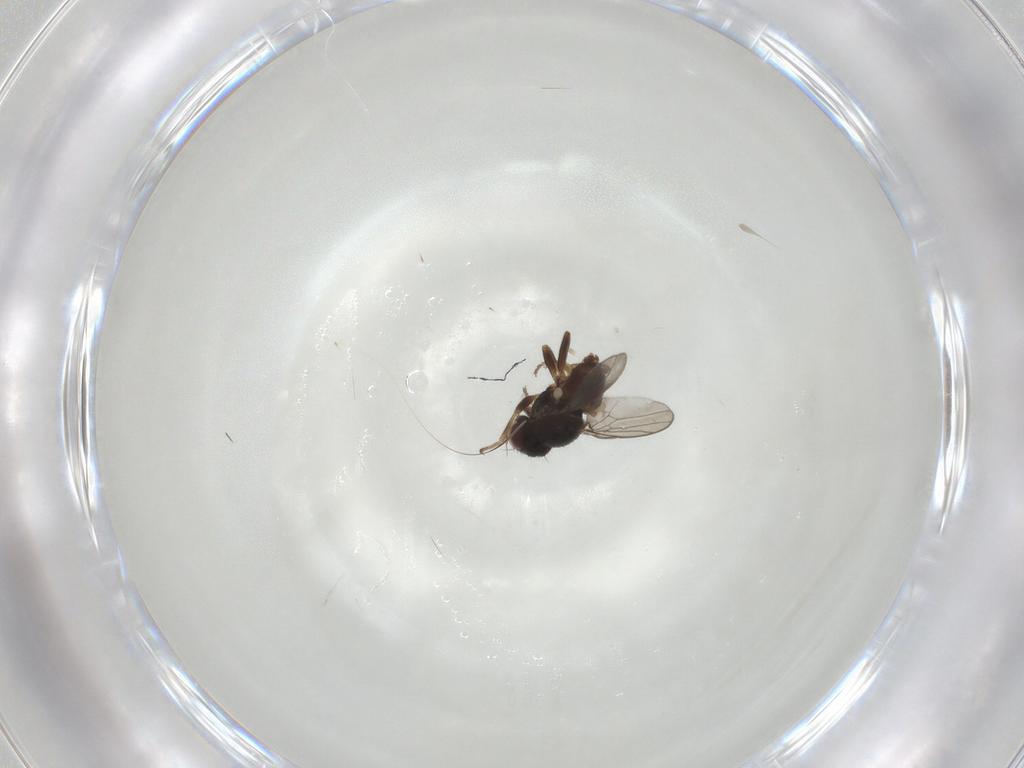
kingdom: Animalia
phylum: Arthropoda
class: Insecta
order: Diptera
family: Chloropidae
